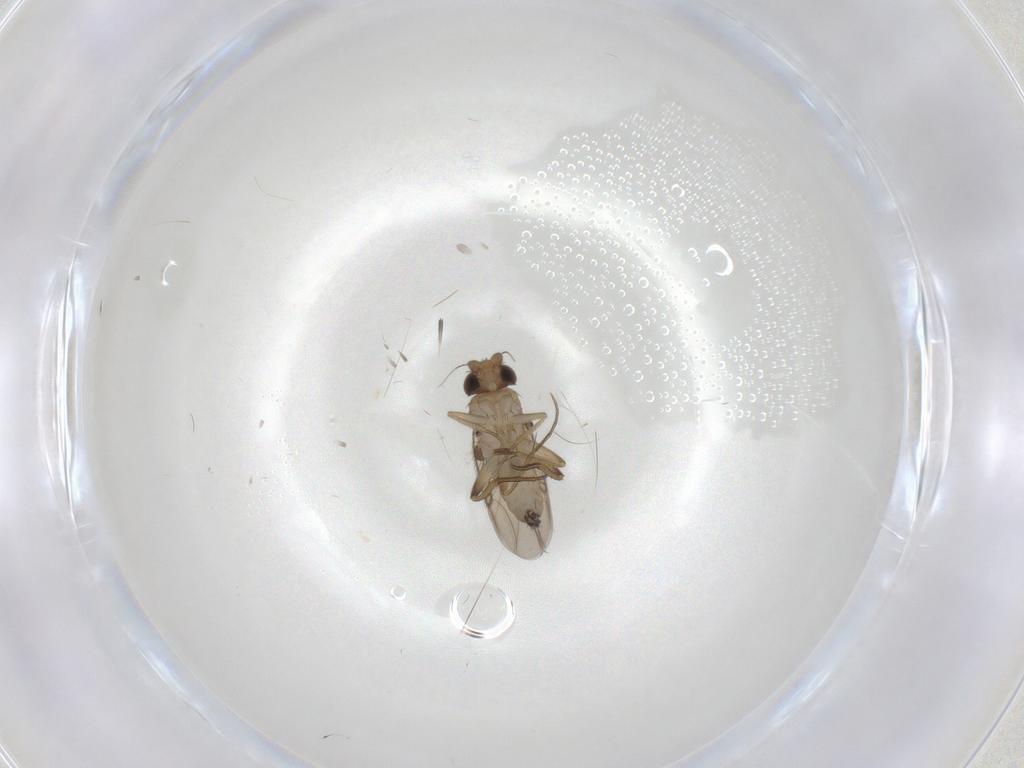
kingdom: Animalia
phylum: Arthropoda
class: Insecta
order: Diptera
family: Phoridae
